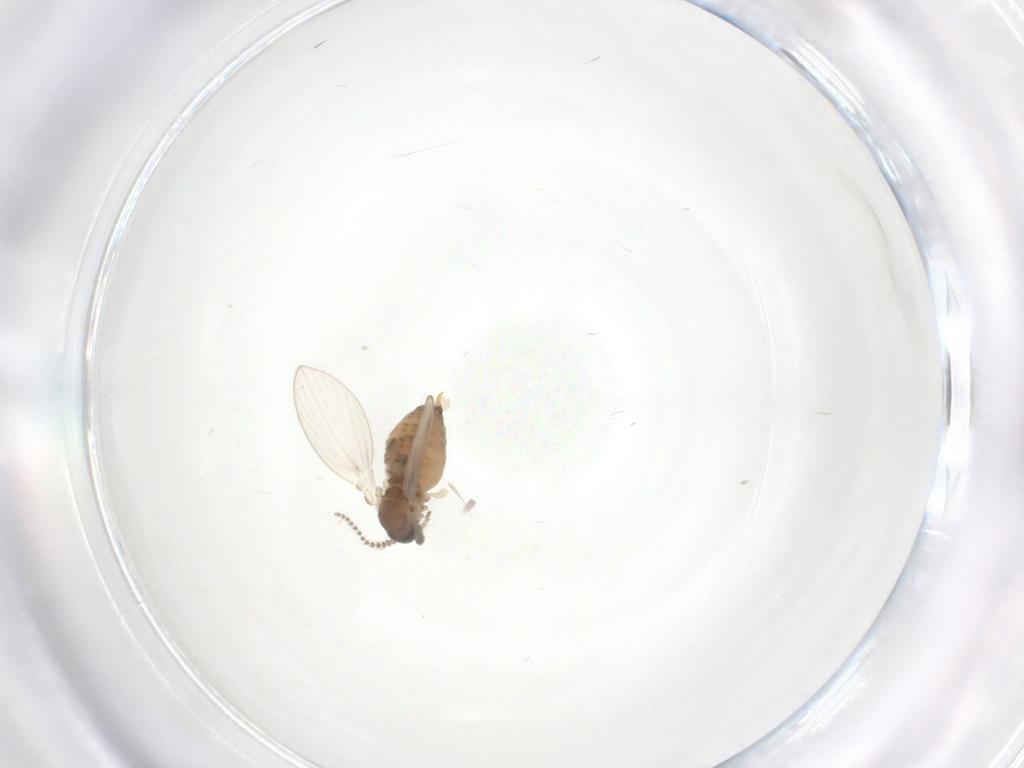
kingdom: Animalia
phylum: Arthropoda
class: Insecta
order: Diptera
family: Psychodidae
